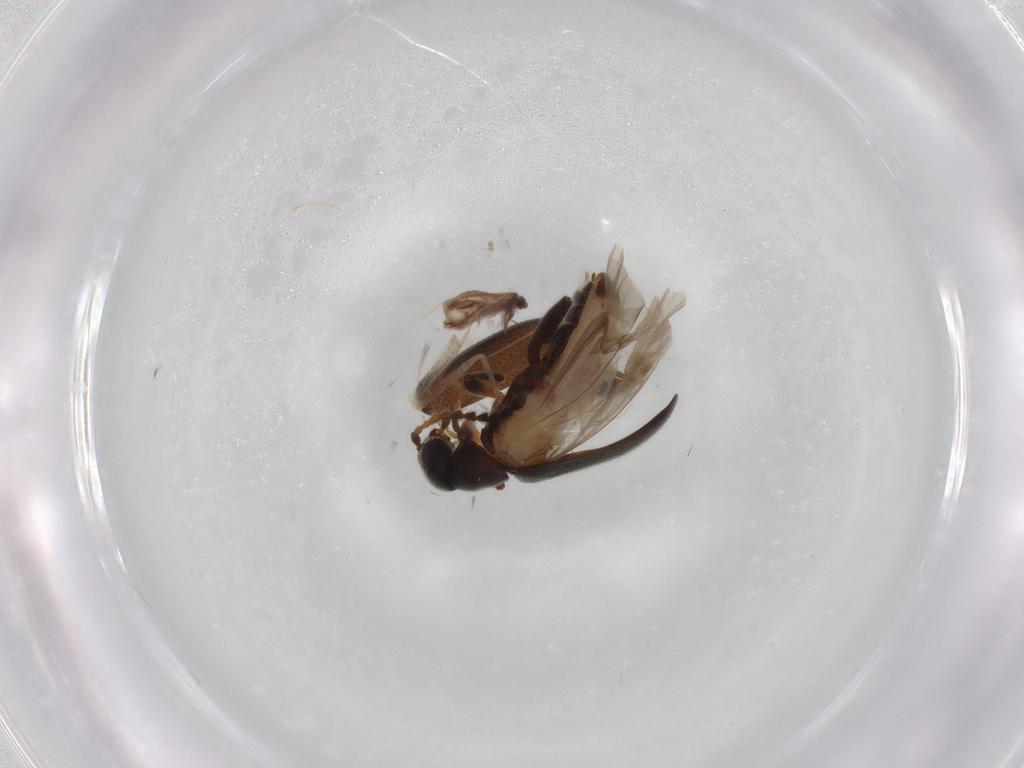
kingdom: Animalia
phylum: Arthropoda
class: Insecta
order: Coleoptera
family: Aderidae
